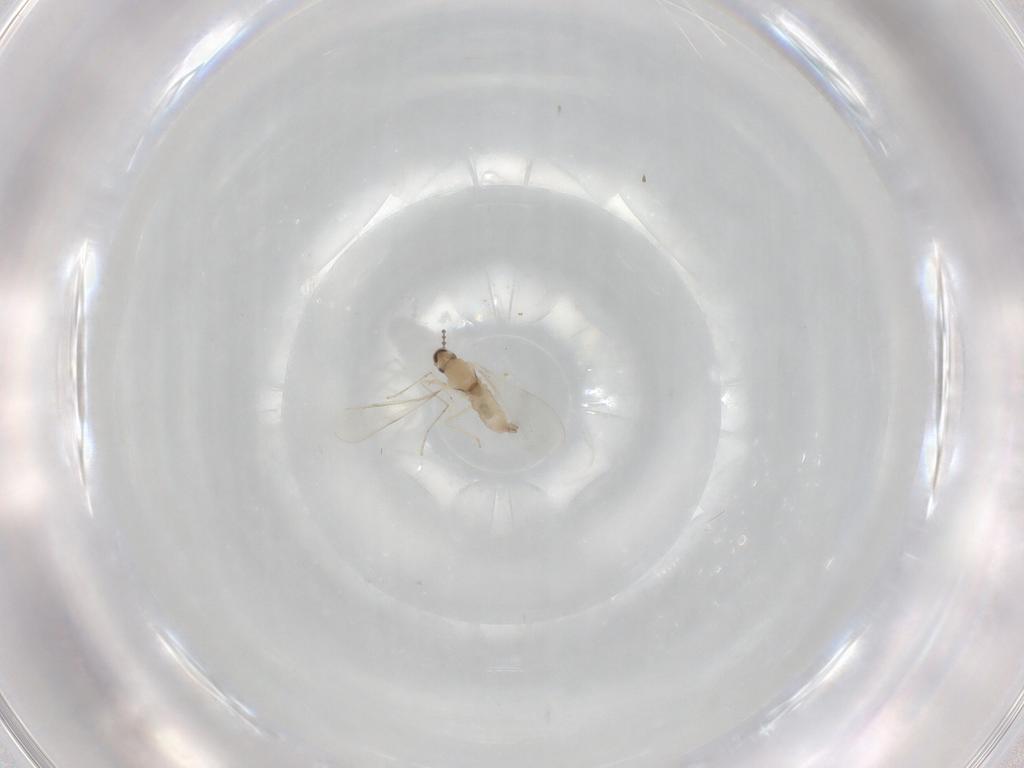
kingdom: Animalia
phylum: Arthropoda
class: Insecta
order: Diptera
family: Cecidomyiidae
